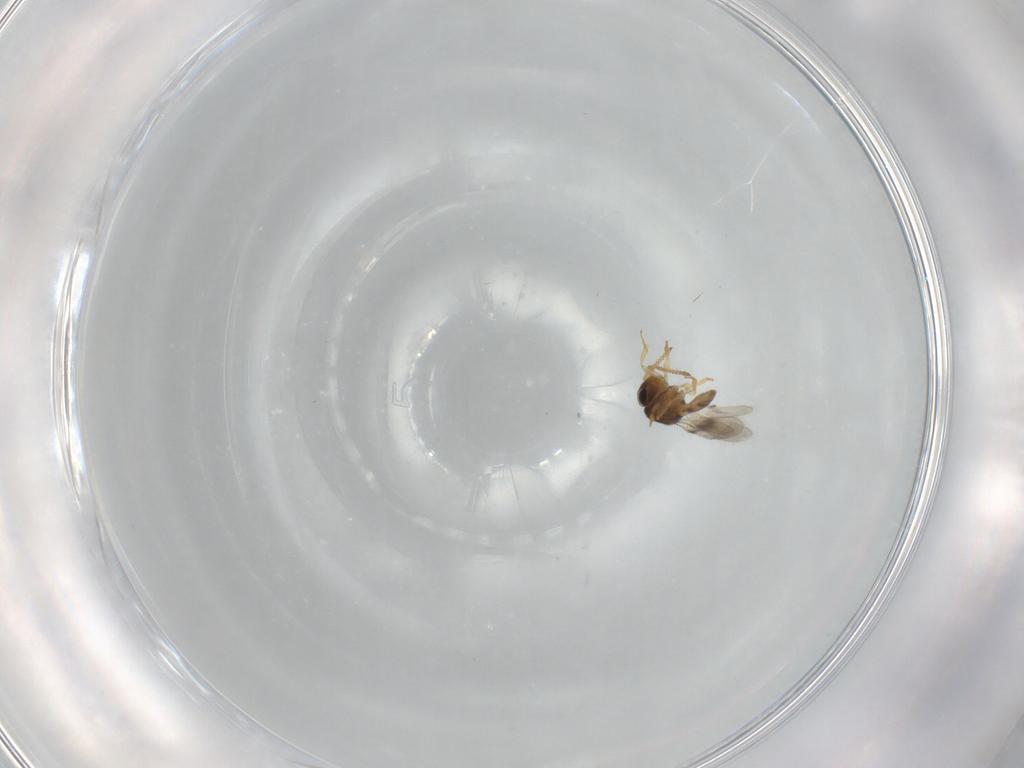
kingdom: Animalia
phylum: Arthropoda
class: Insecta
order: Hymenoptera
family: Scelionidae
